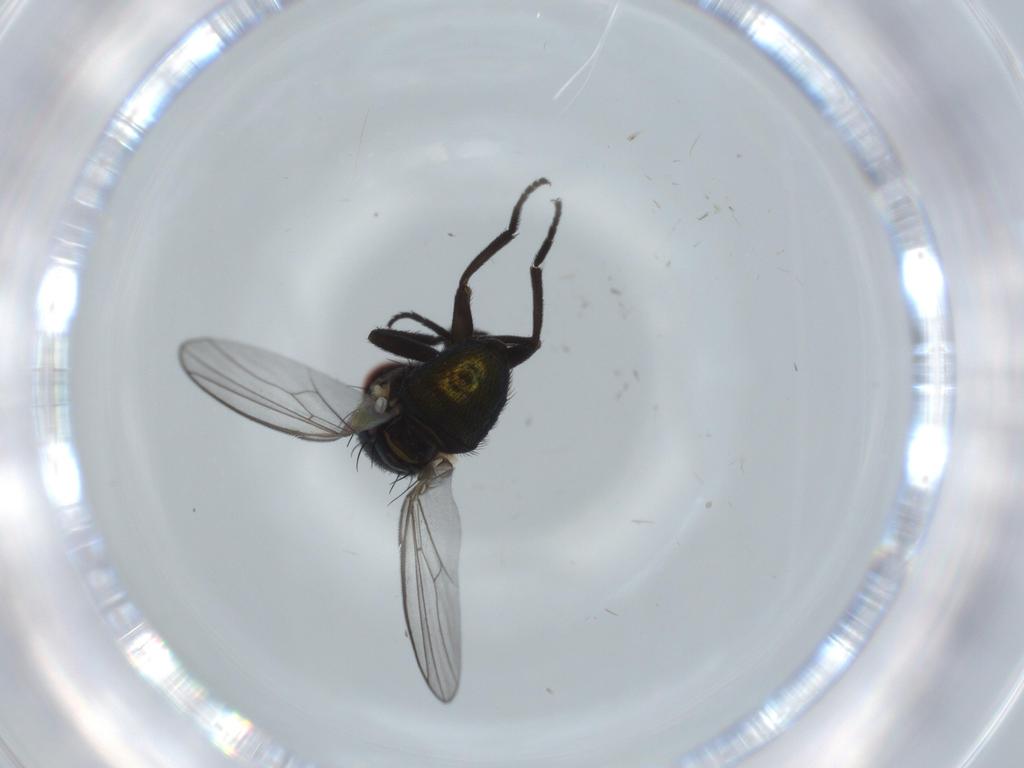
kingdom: Animalia
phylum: Arthropoda
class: Insecta
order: Diptera
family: Agromyzidae
